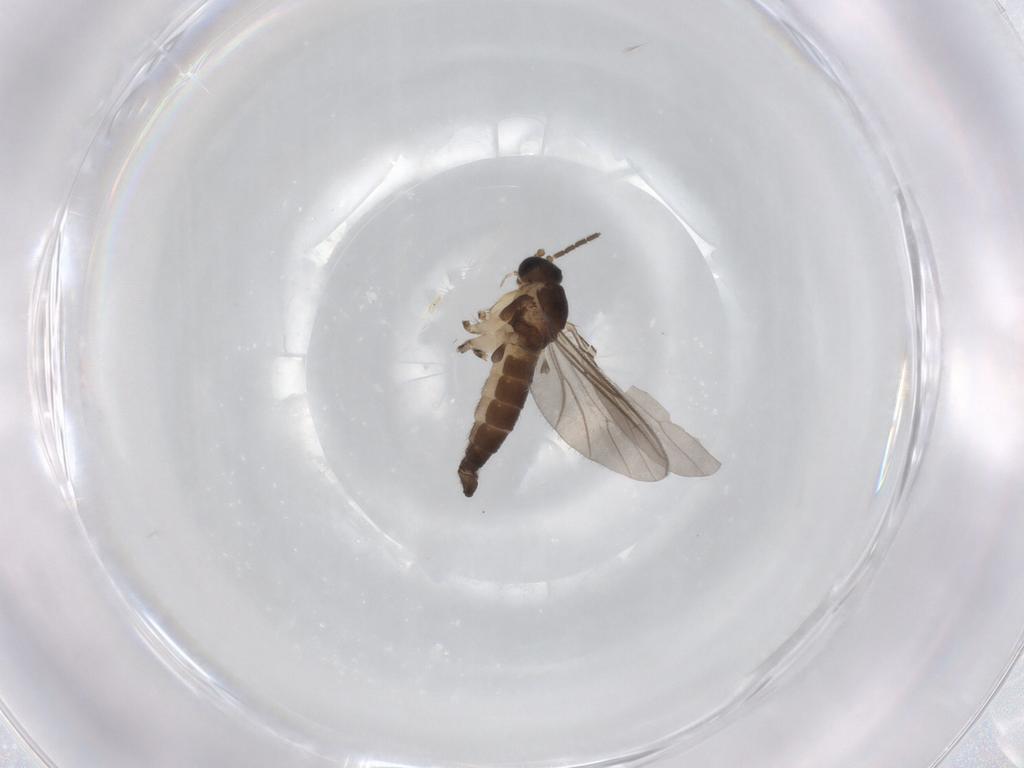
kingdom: Animalia
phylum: Arthropoda
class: Insecta
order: Diptera
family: Sciaridae
